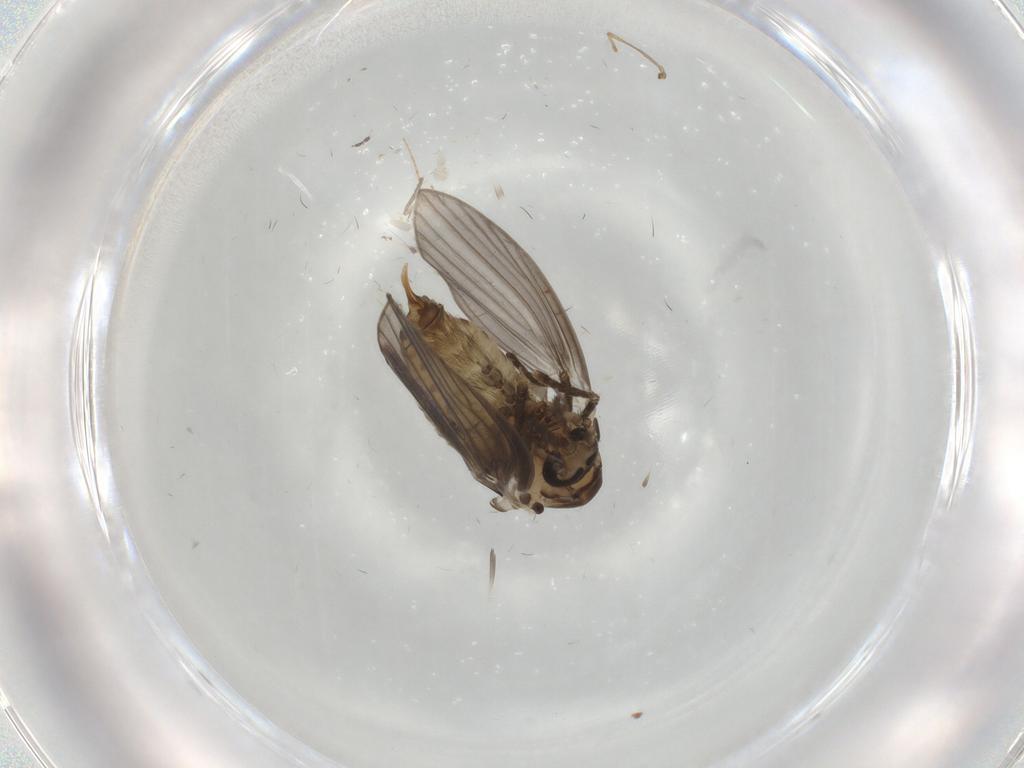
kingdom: Animalia
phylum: Arthropoda
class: Insecta
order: Diptera
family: Psychodidae
